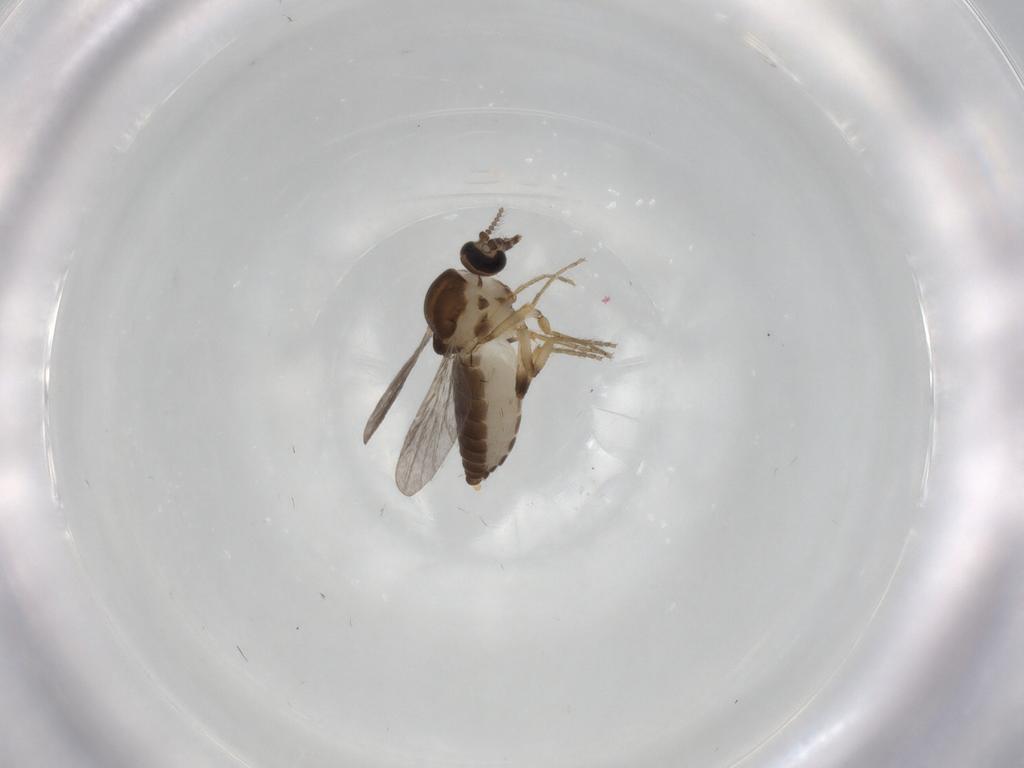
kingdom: Animalia
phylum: Arthropoda
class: Insecta
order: Diptera
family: Ceratopogonidae
